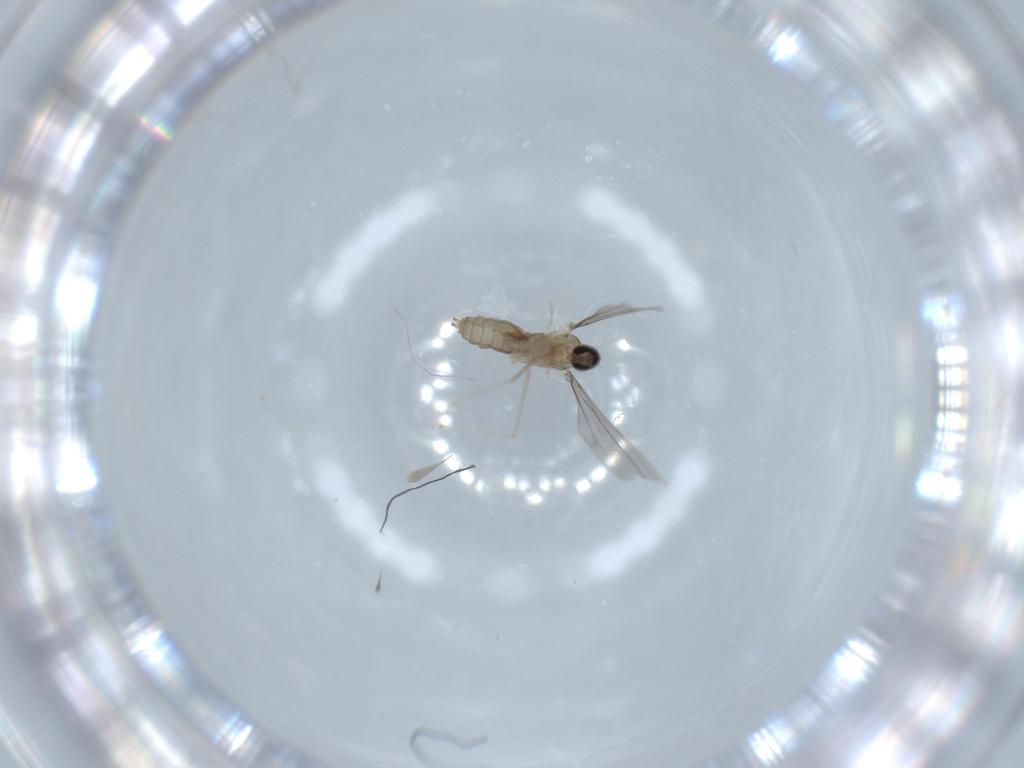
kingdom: Animalia
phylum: Arthropoda
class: Insecta
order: Diptera
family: Cecidomyiidae
